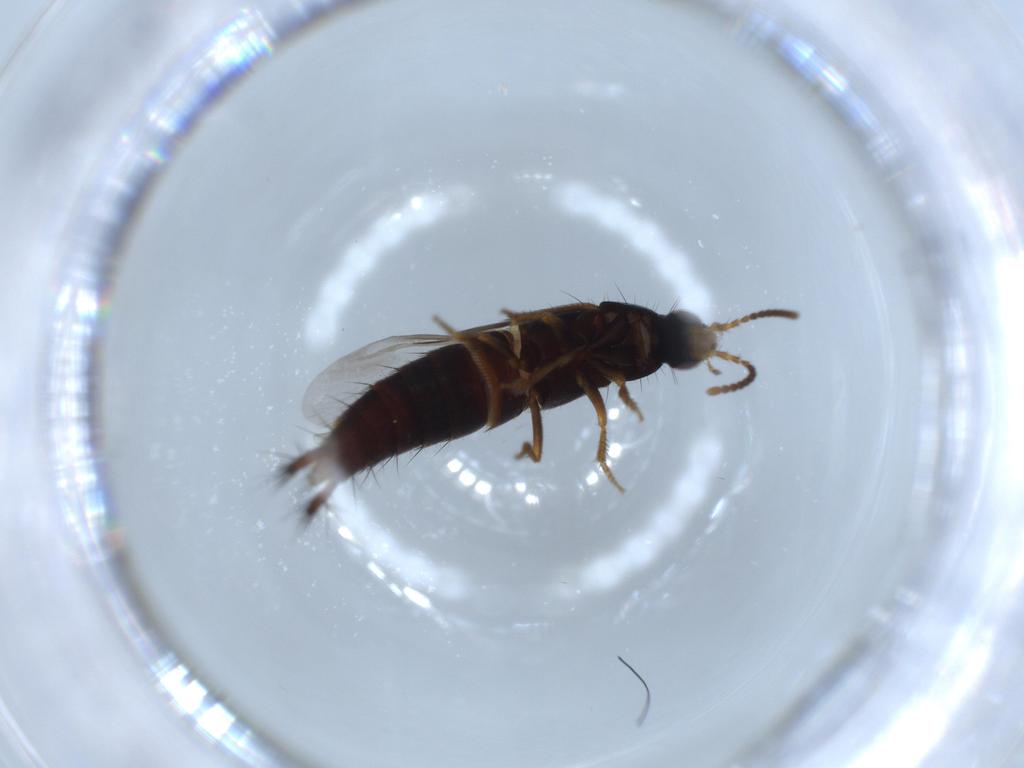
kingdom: Animalia
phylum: Arthropoda
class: Insecta
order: Coleoptera
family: Staphylinidae
